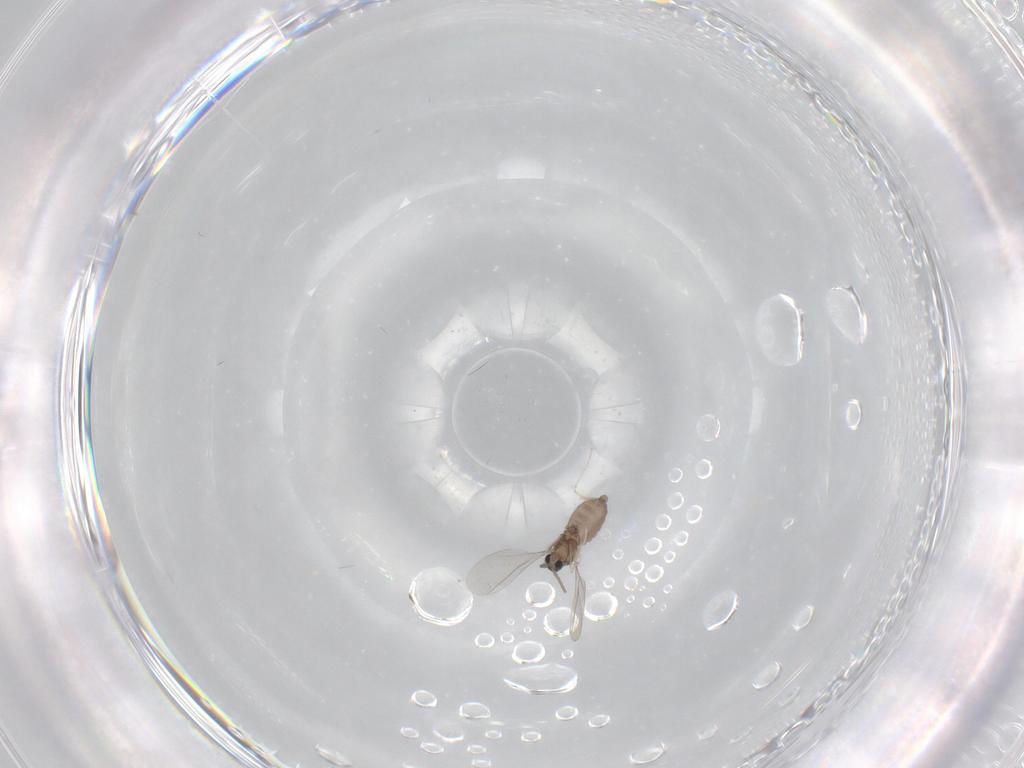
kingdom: Animalia
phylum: Arthropoda
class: Insecta
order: Diptera
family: Cecidomyiidae
